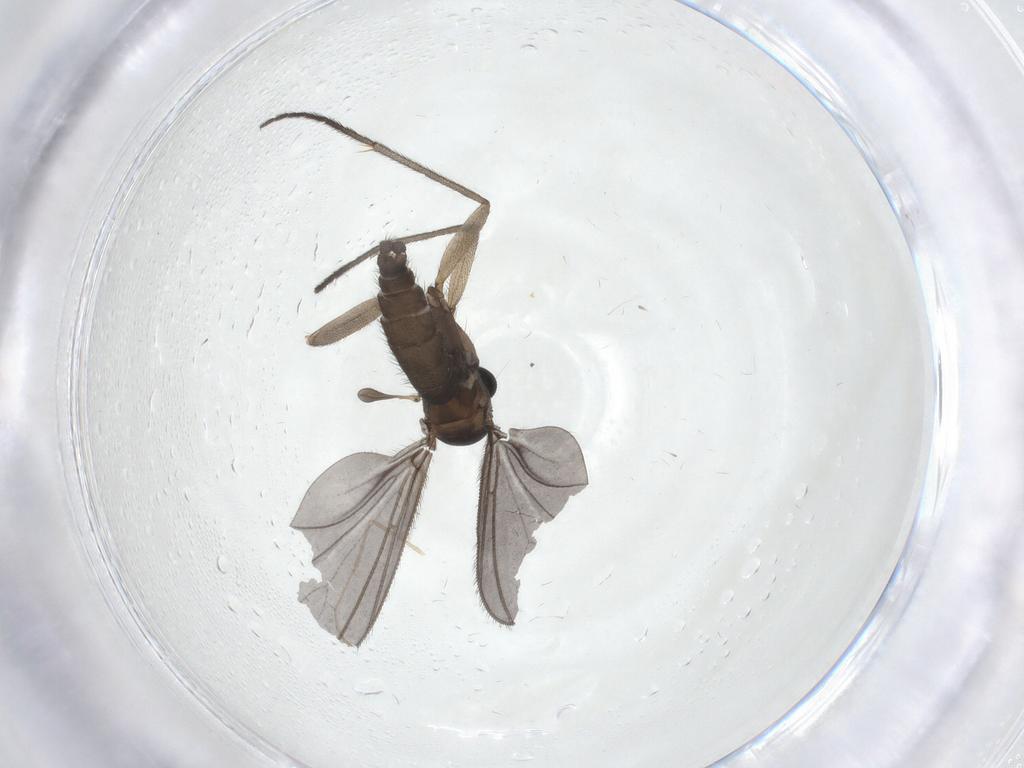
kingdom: Animalia
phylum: Arthropoda
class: Insecta
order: Diptera
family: Sciaridae
